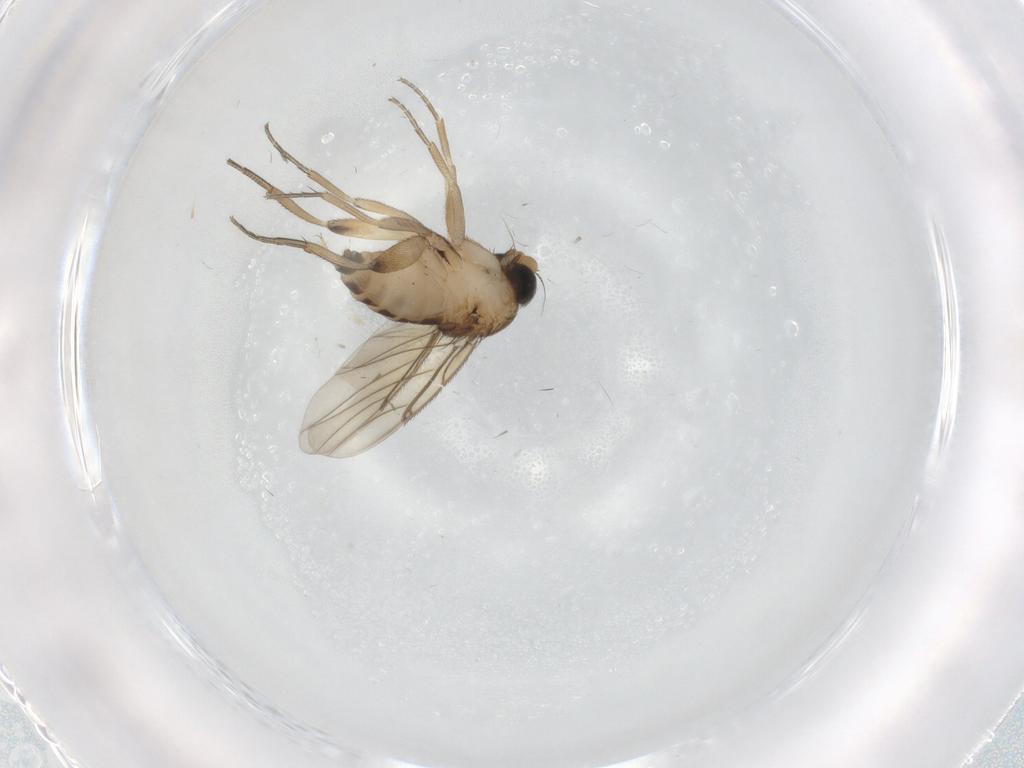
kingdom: Animalia
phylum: Arthropoda
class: Insecta
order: Diptera
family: Phoridae
